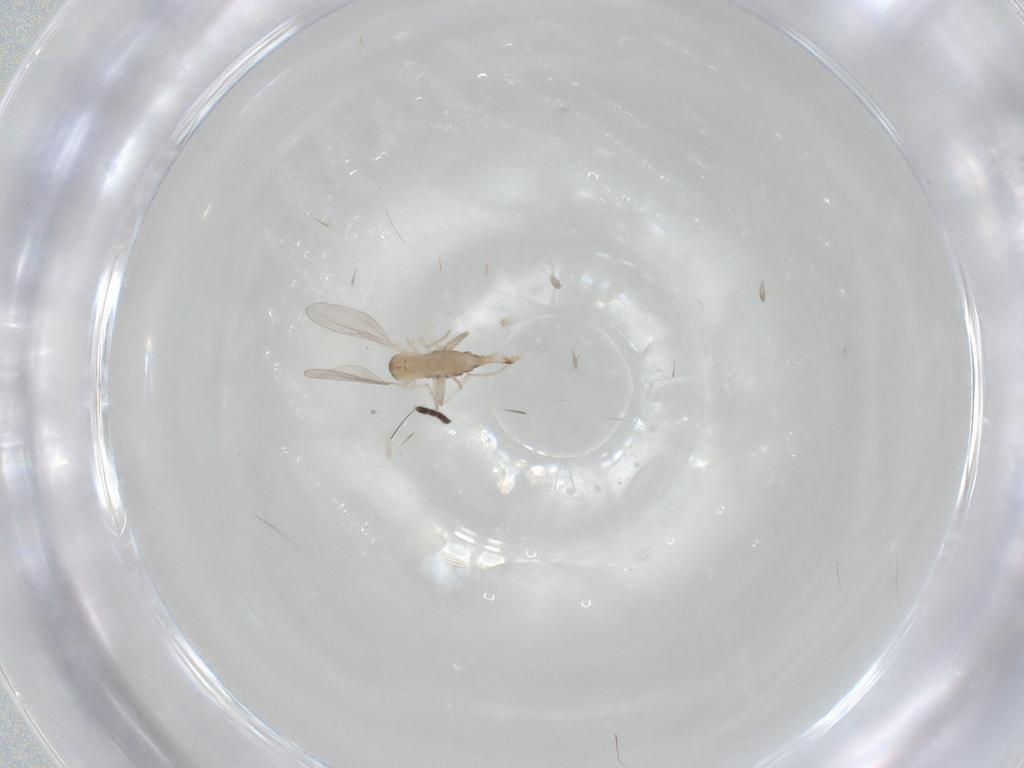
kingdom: Animalia
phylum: Arthropoda
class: Insecta
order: Diptera
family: Cecidomyiidae
